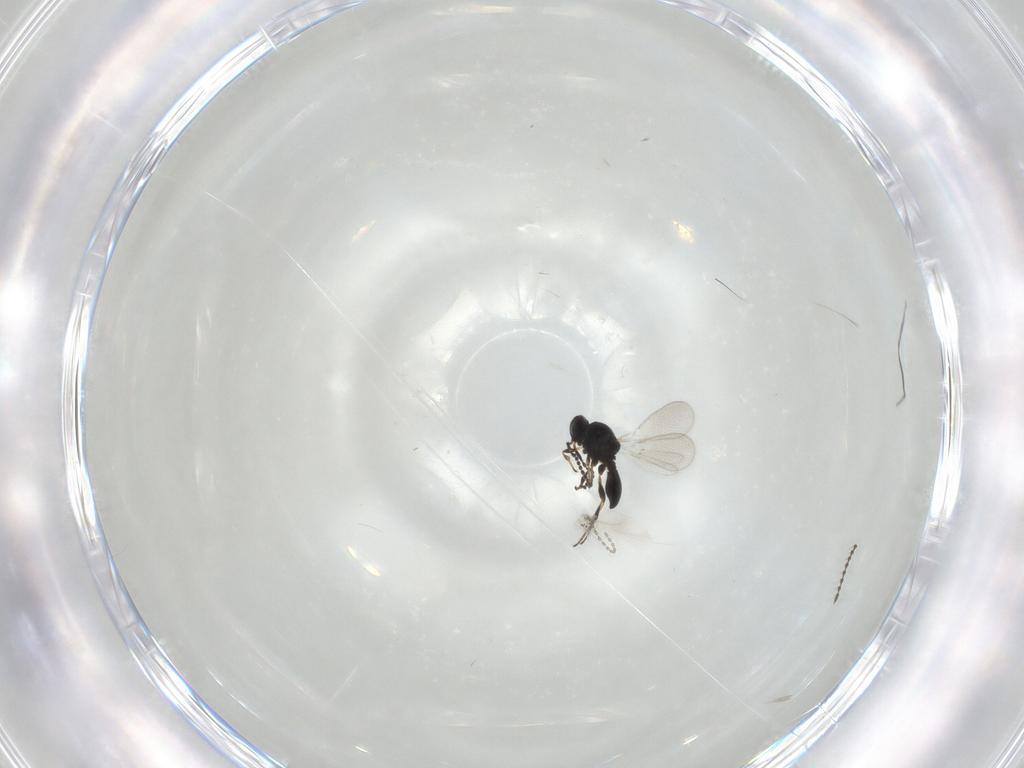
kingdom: Animalia
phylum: Arthropoda
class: Insecta
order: Hymenoptera
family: Platygastridae
